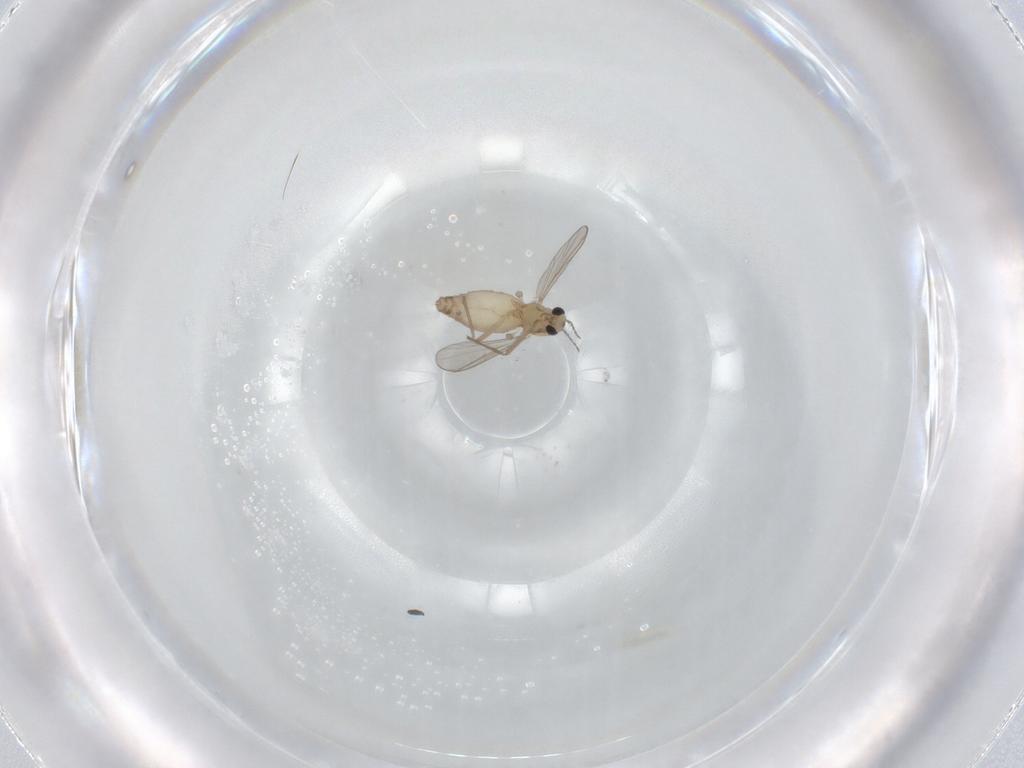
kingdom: Animalia
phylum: Arthropoda
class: Insecta
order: Diptera
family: Chironomidae
